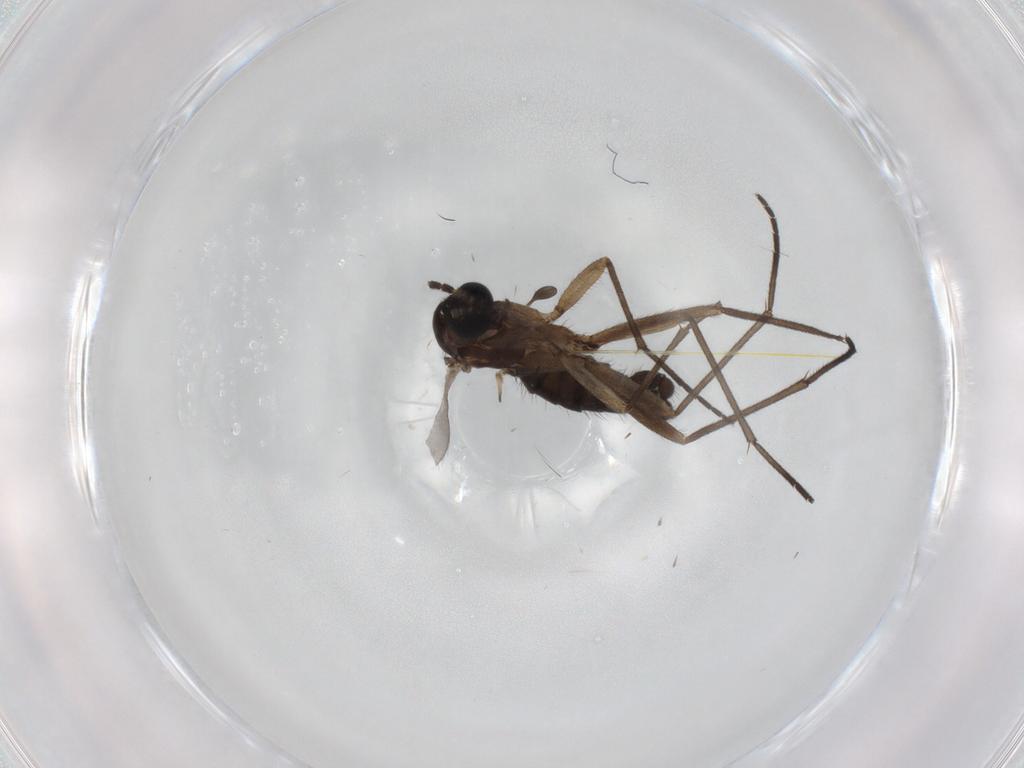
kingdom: Animalia
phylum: Arthropoda
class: Insecta
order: Diptera
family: Sciaridae
